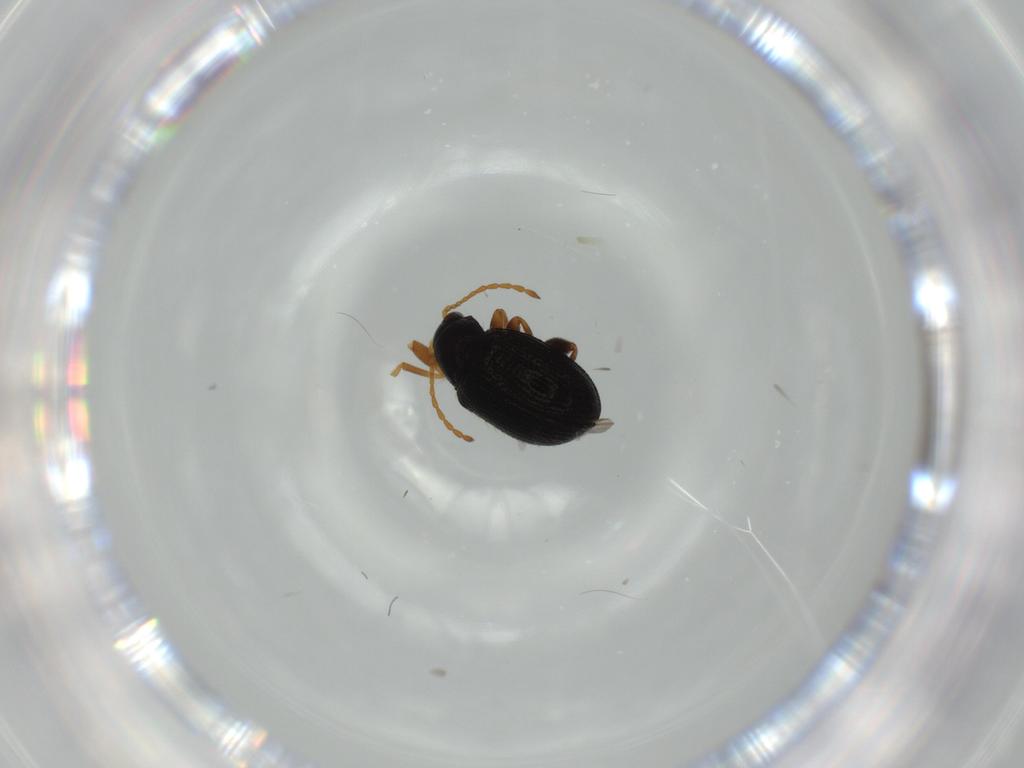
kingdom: Animalia
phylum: Arthropoda
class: Insecta
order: Coleoptera
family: Chrysomelidae
